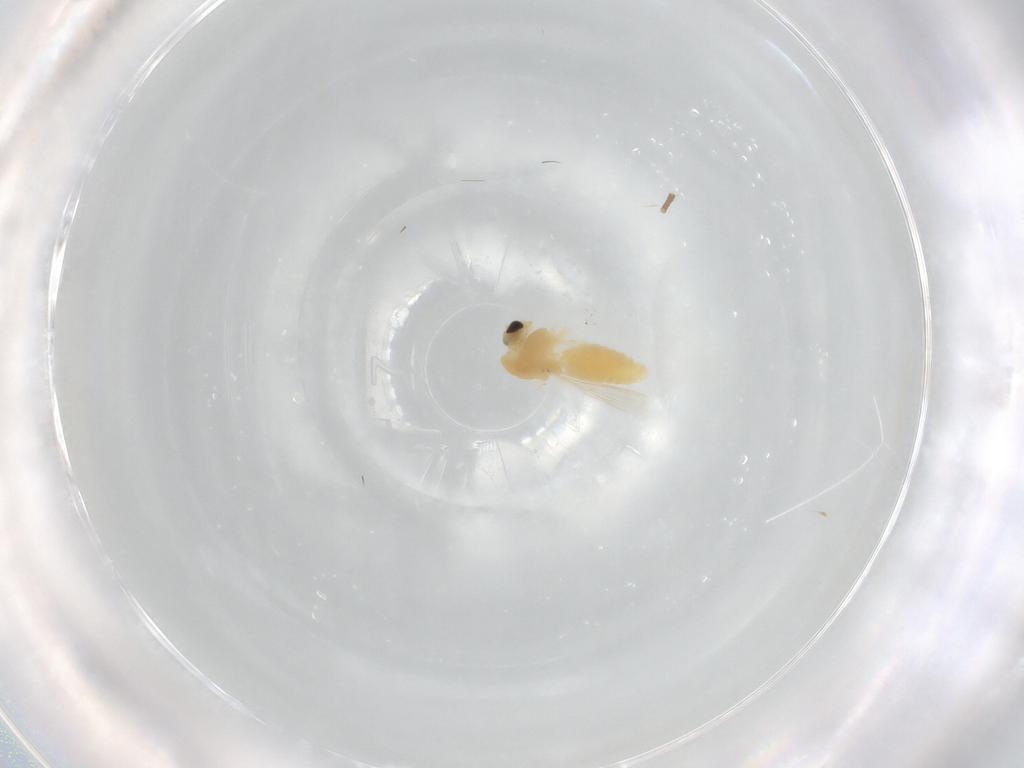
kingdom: Animalia
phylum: Arthropoda
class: Insecta
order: Diptera
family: Chironomidae
